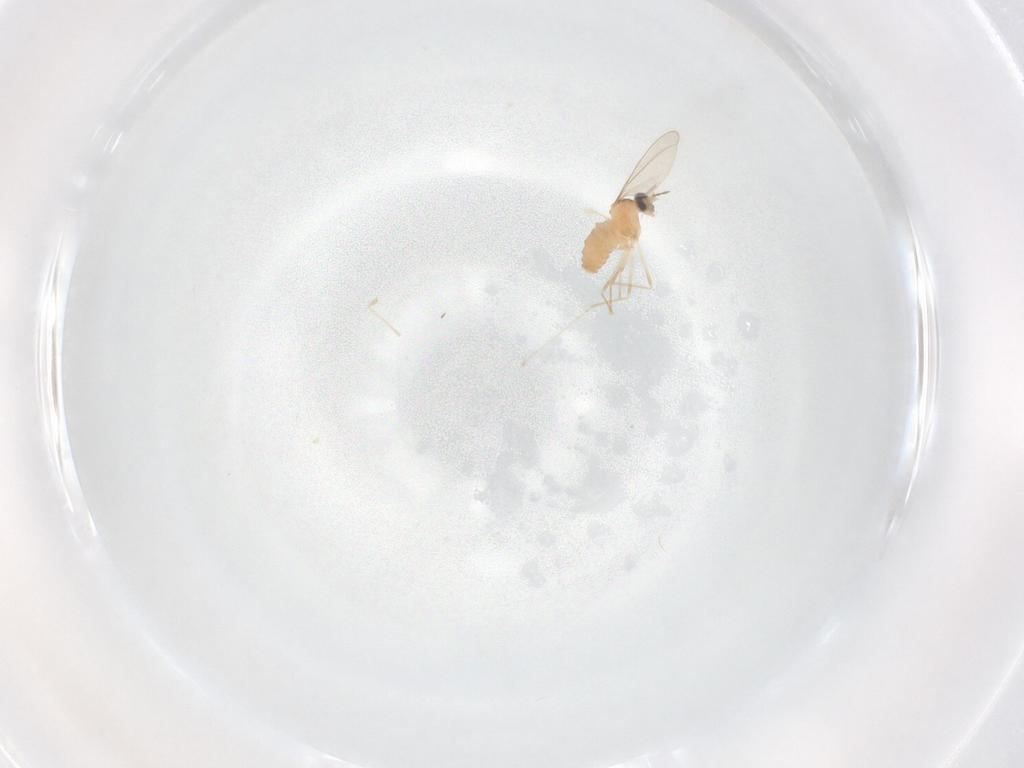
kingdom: Animalia
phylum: Arthropoda
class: Insecta
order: Diptera
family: Cecidomyiidae
